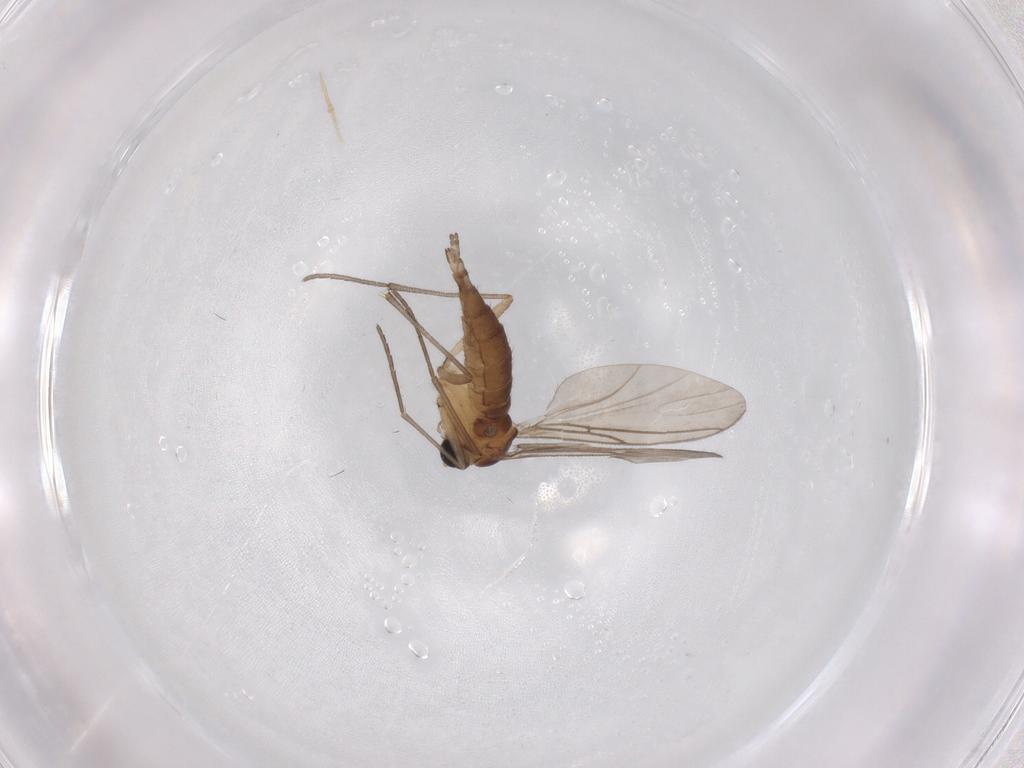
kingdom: Animalia
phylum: Arthropoda
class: Insecta
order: Diptera
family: Sciaridae
